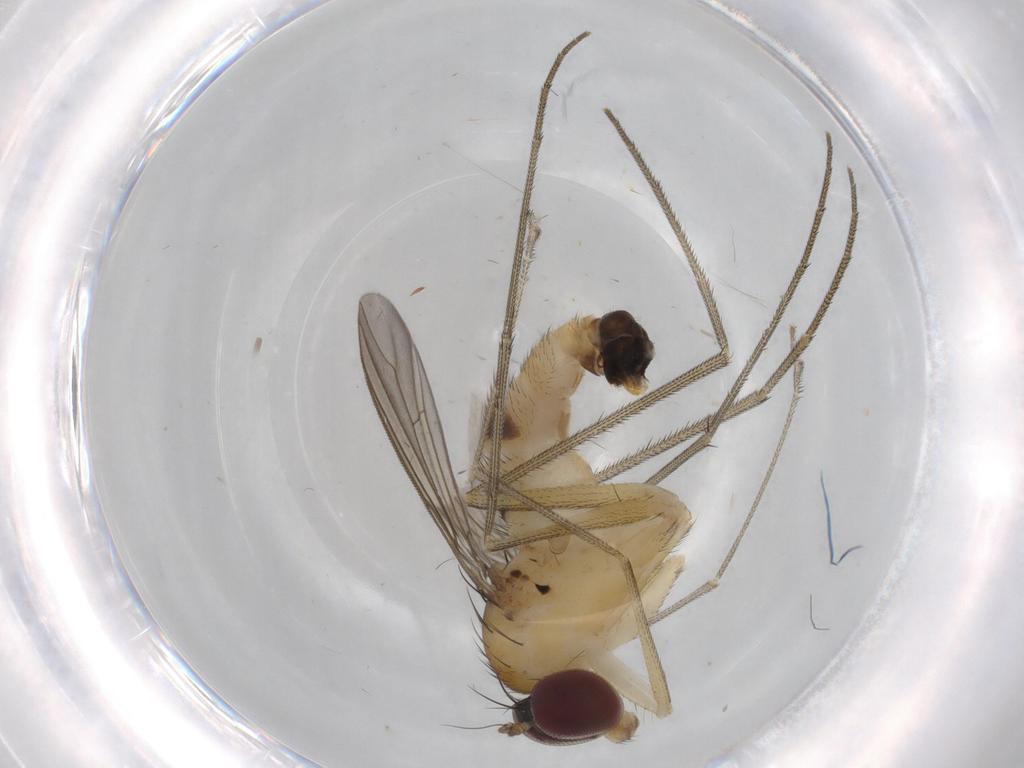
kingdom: Animalia
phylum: Arthropoda
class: Insecta
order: Diptera
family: Dolichopodidae
